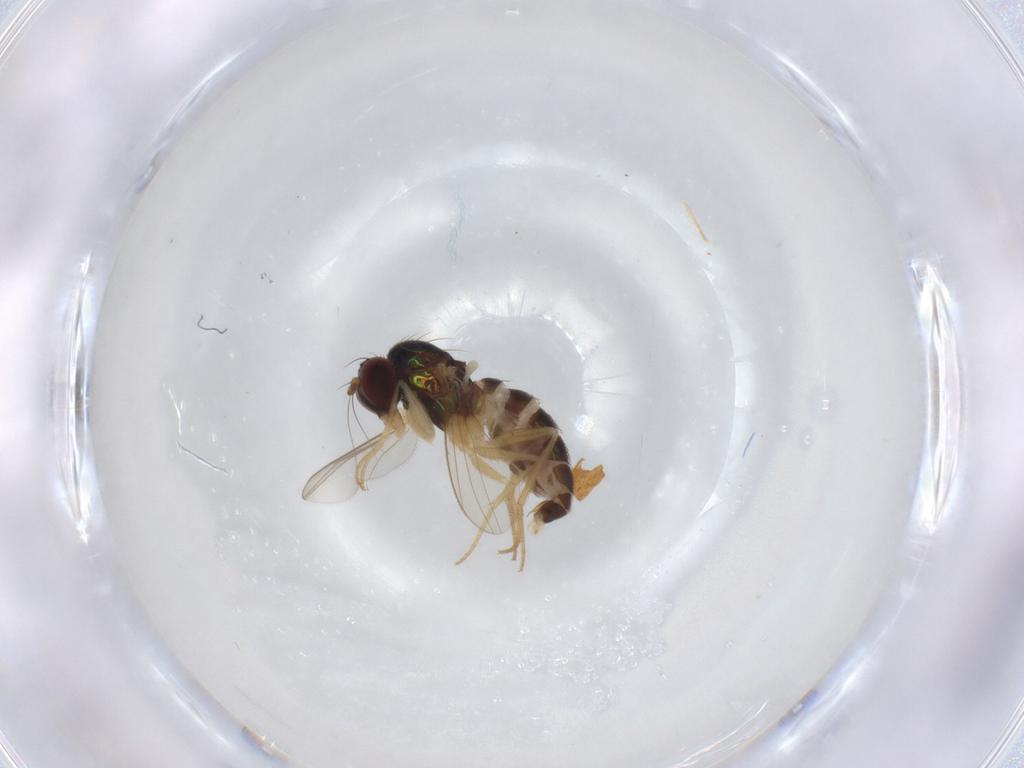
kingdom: Animalia
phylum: Arthropoda
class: Insecta
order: Diptera
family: Dolichopodidae
